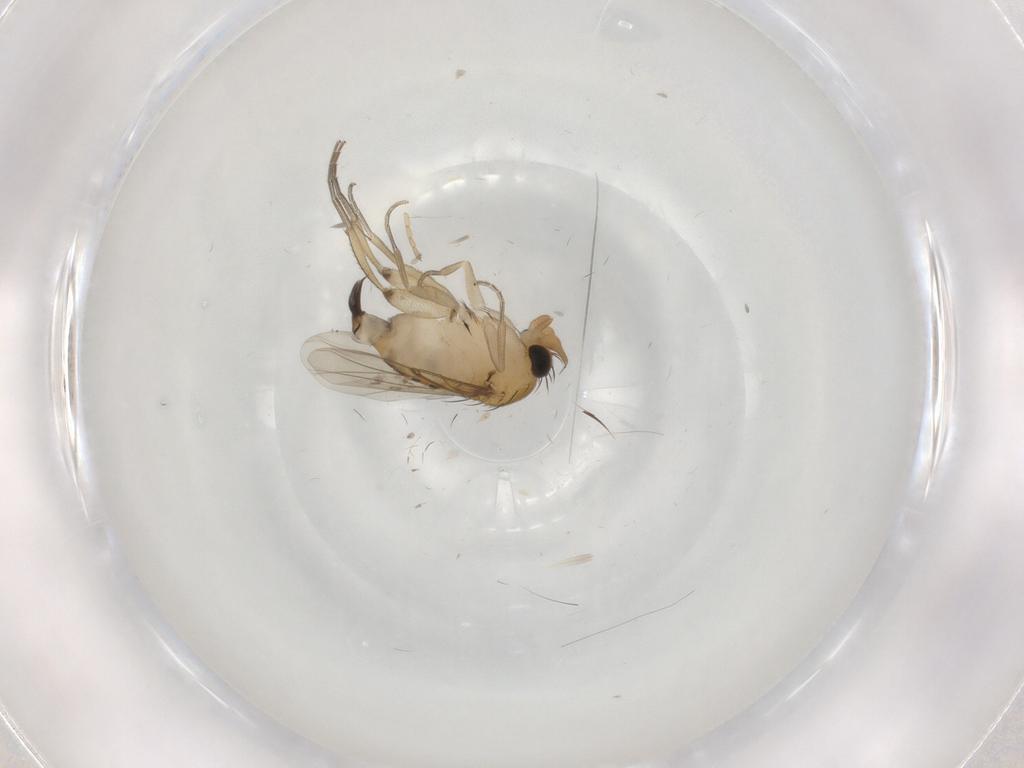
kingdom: Animalia
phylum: Arthropoda
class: Insecta
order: Diptera
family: Phoridae
